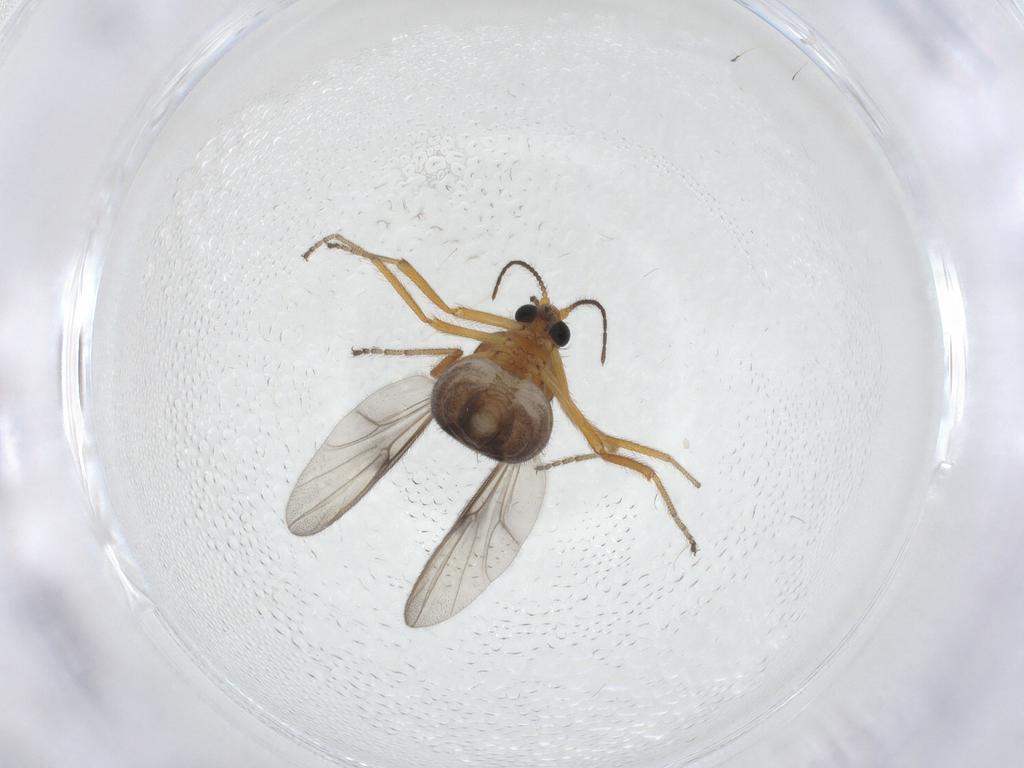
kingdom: Animalia
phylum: Arthropoda
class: Insecta
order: Diptera
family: Ceratopogonidae
